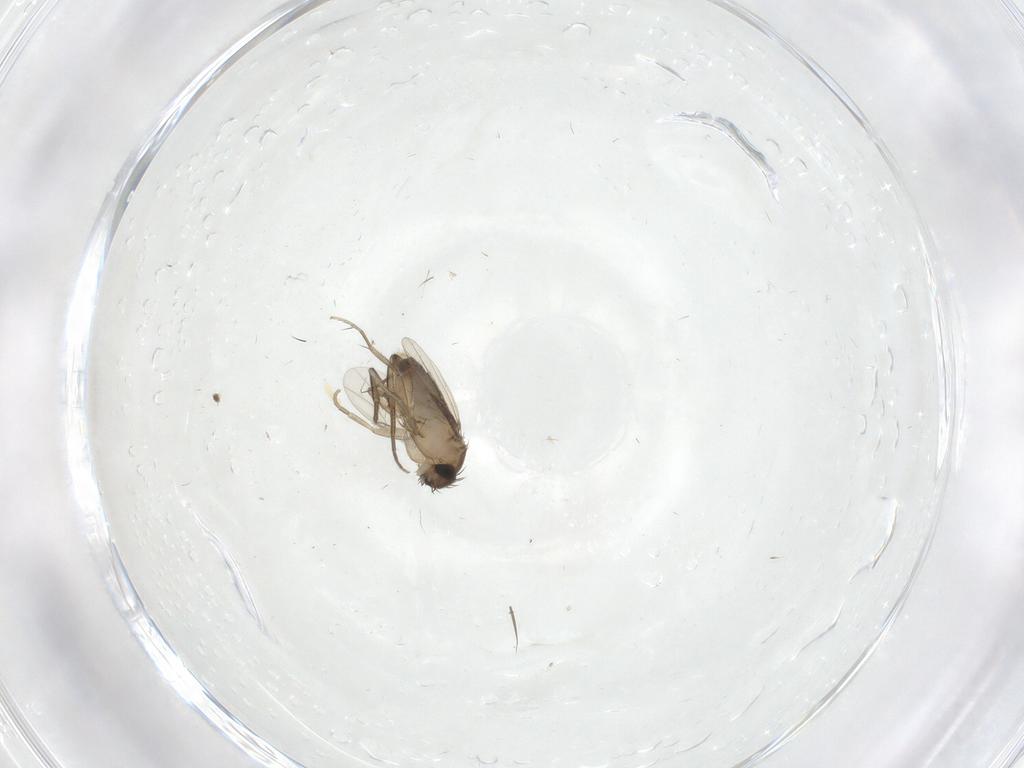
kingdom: Animalia
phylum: Arthropoda
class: Insecta
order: Diptera
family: Phoridae
